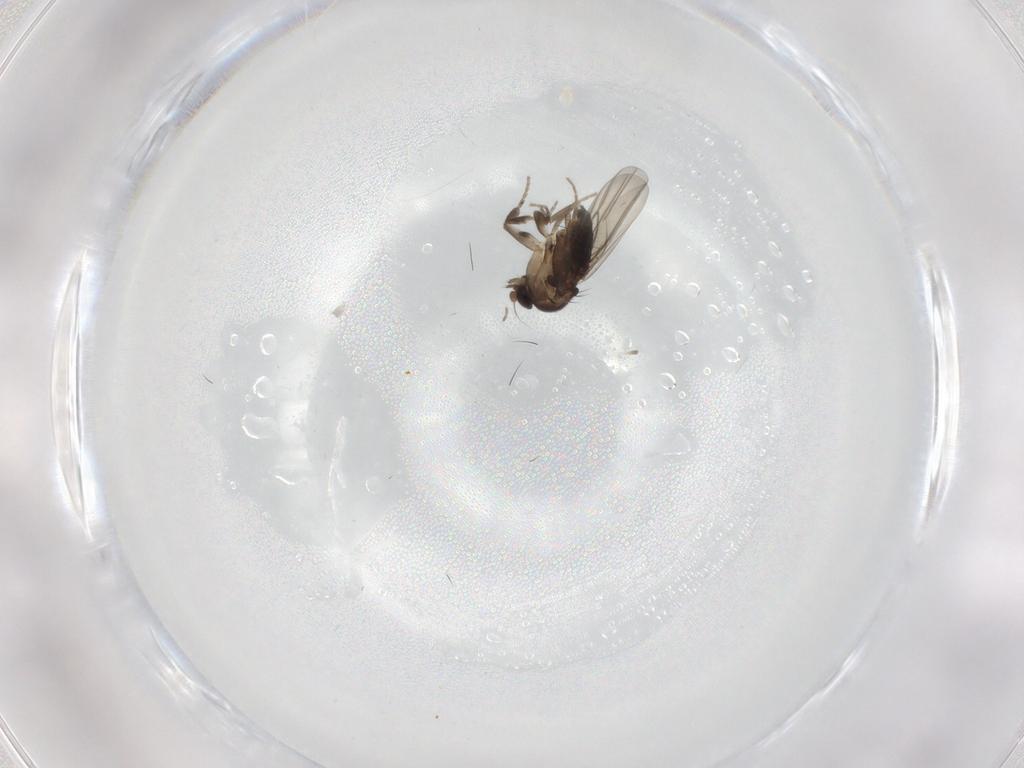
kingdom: Animalia
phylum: Arthropoda
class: Insecta
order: Diptera
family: Phoridae
